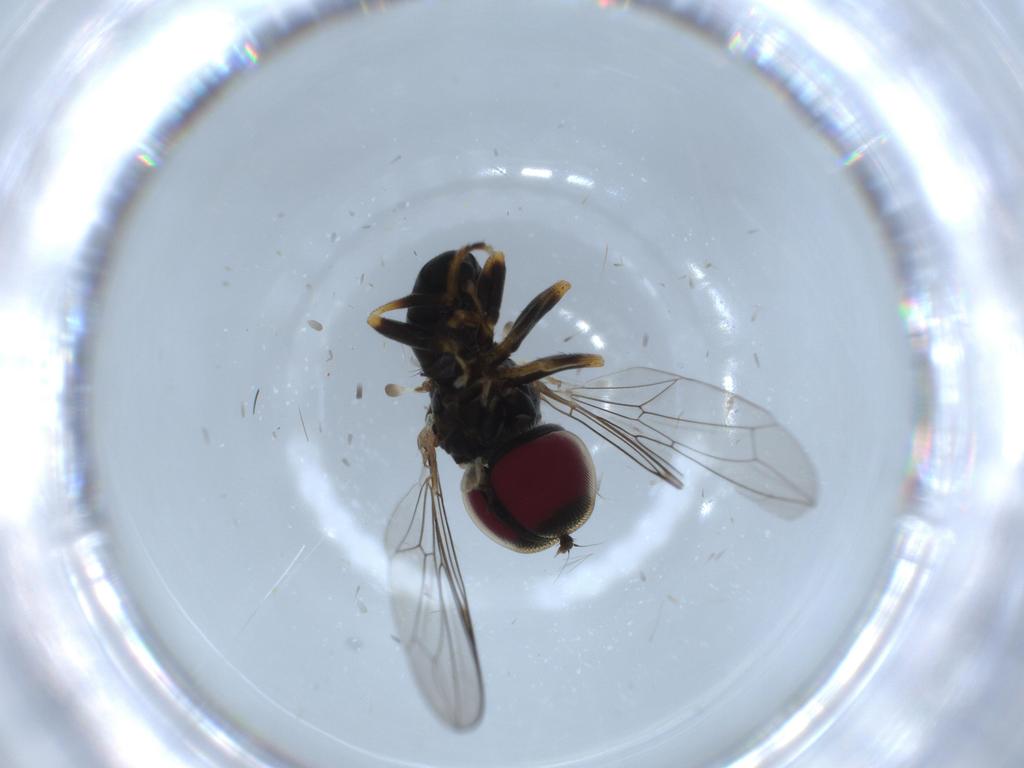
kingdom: Animalia
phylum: Arthropoda
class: Insecta
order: Diptera
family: Pipunculidae
